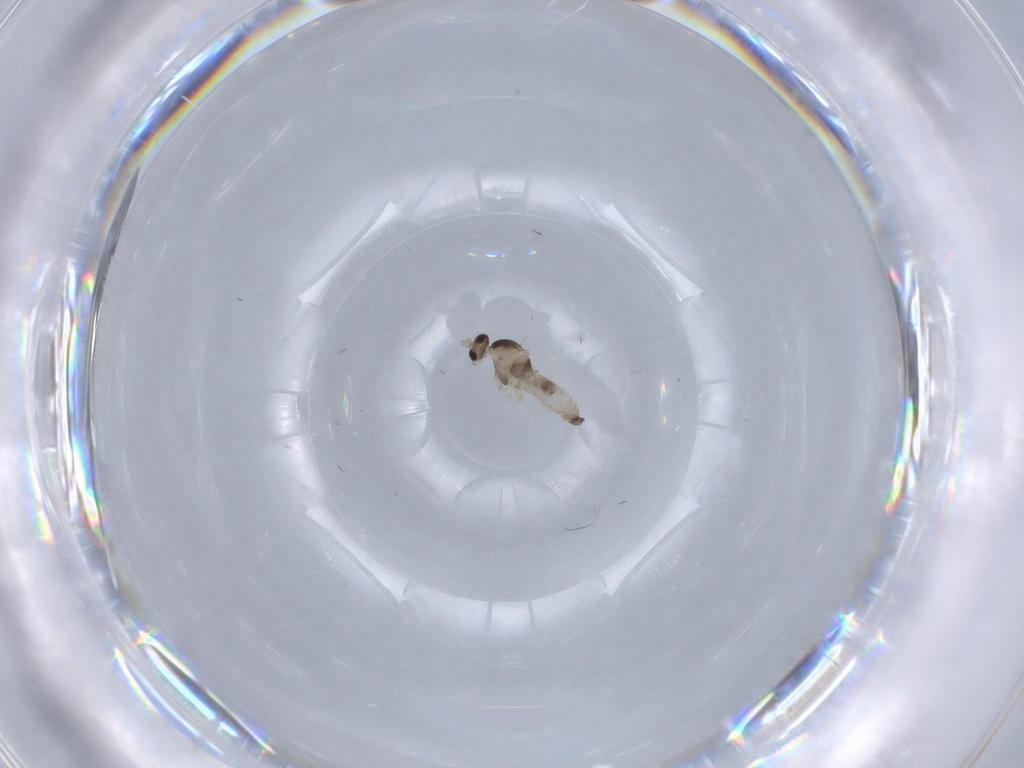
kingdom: Animalia
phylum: Arthropoda
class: Insecta
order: Diptera
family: Cecidomyiidae
